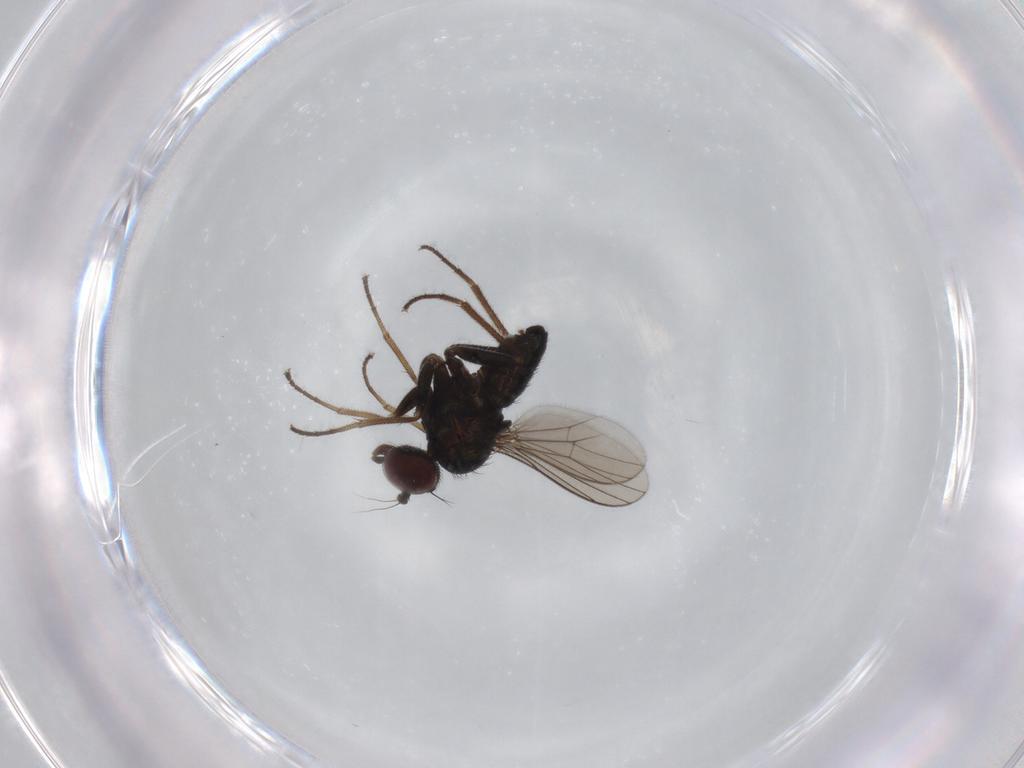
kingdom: Animalia
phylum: Arthropoda
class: Insecta
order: Diptera
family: Dolichopodidae
